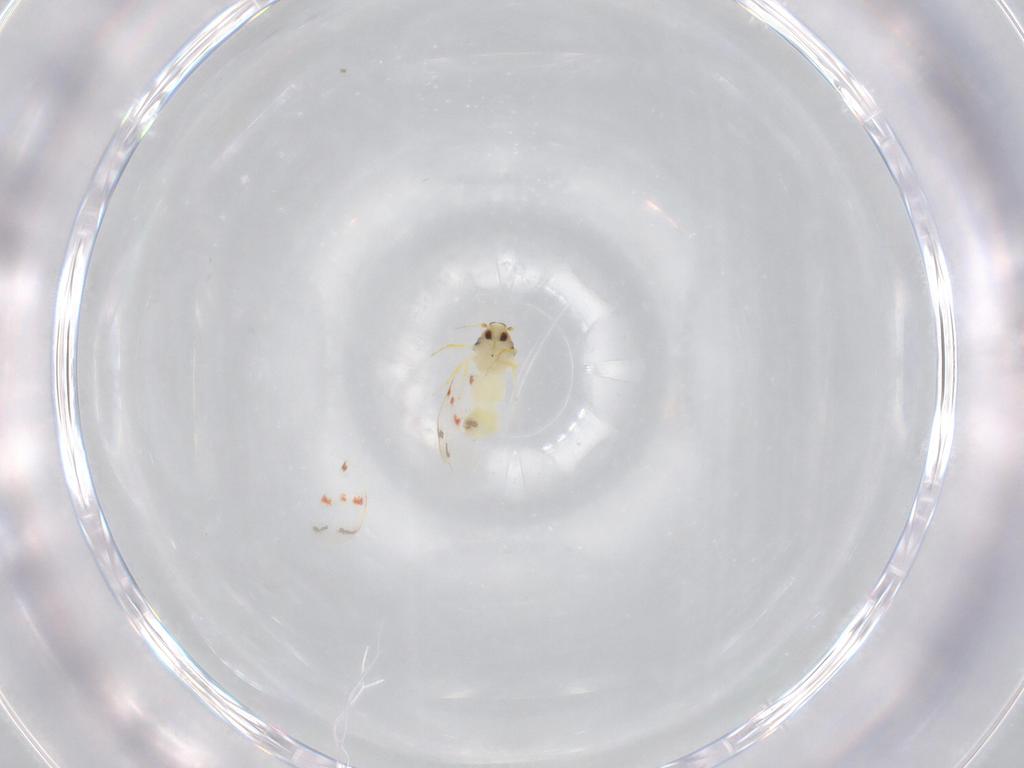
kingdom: Animalia
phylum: Arthropoda
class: Insecta
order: Hemiptera
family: Aleyrodidae
